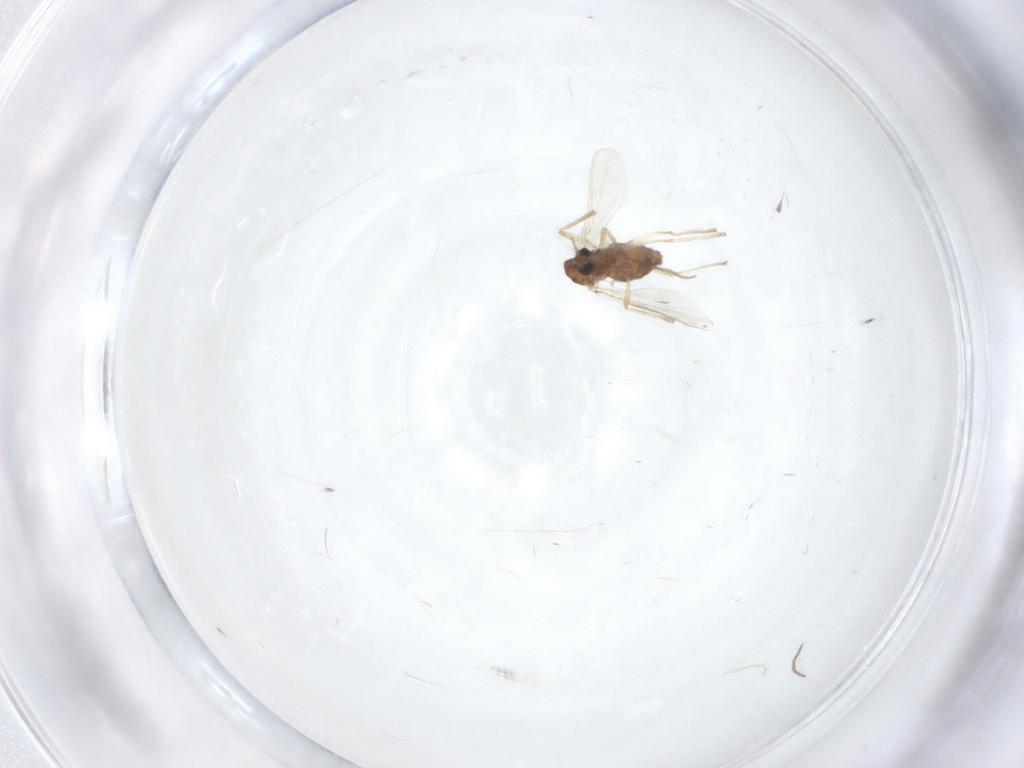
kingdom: Animalia
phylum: Arthropoda
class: Insecta
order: Diptera
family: Chironomidae
